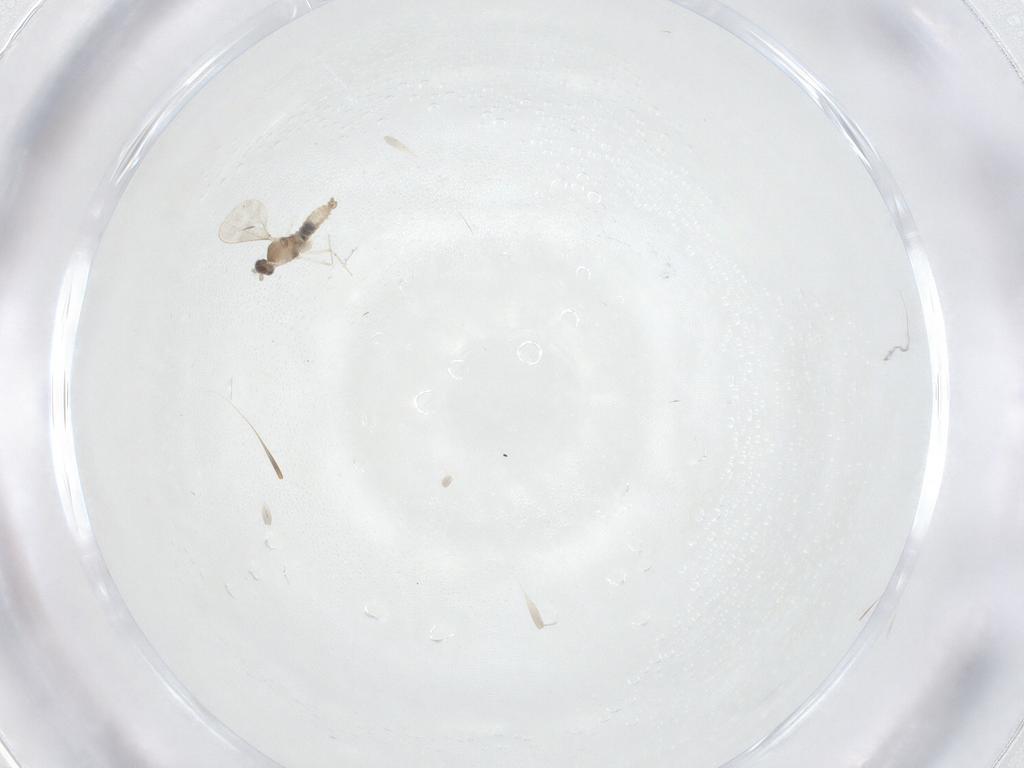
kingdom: Animalia
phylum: Arthropoda
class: Insecta
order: Diptera
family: Cecidomyiidae
